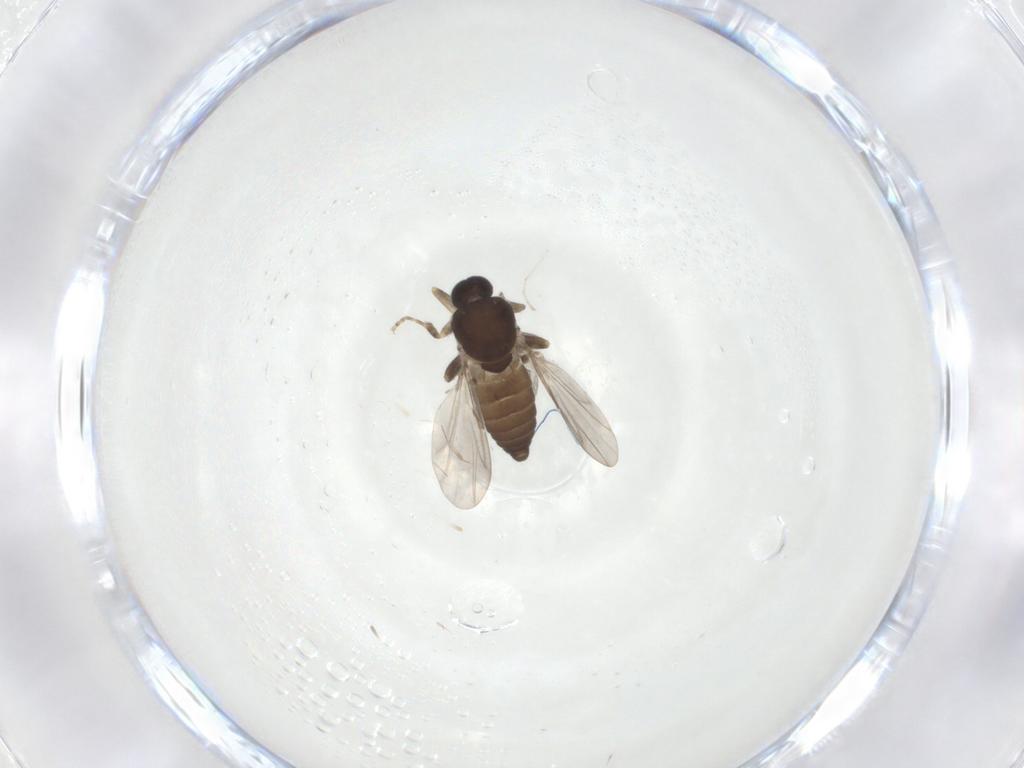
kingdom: Animalia
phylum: Arthropoda
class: Insecta
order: Diptera
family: Ceratopogonidae
